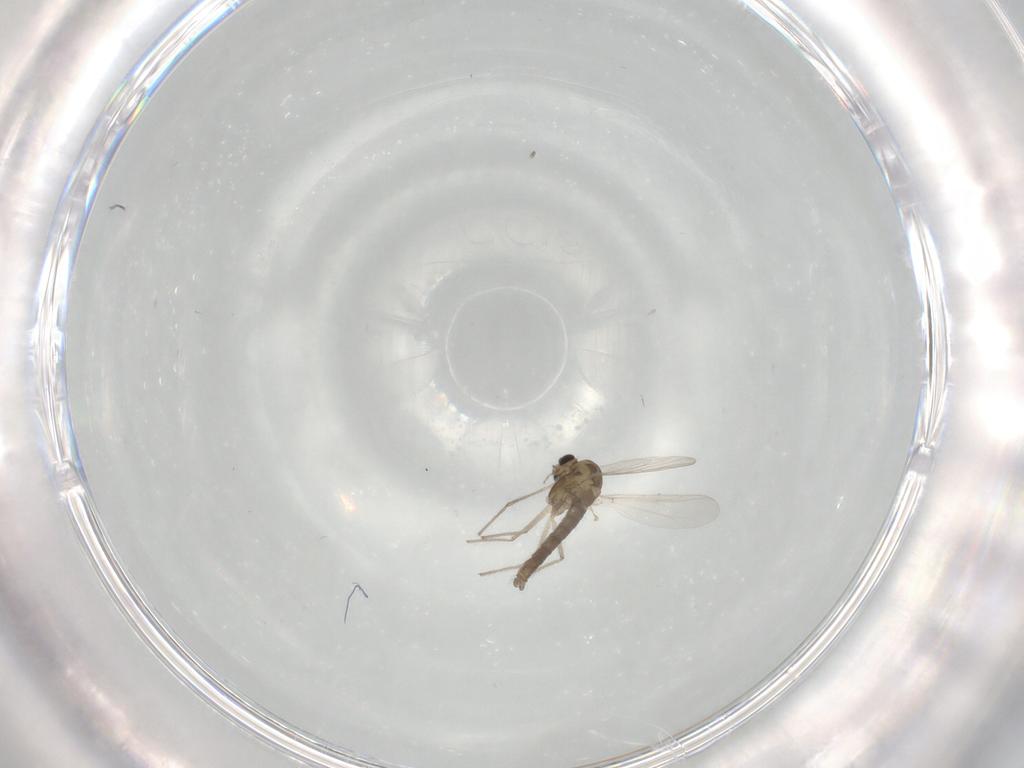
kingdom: Animalia
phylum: Arthropoda
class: Insecta
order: Diptera
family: Chironomidae
